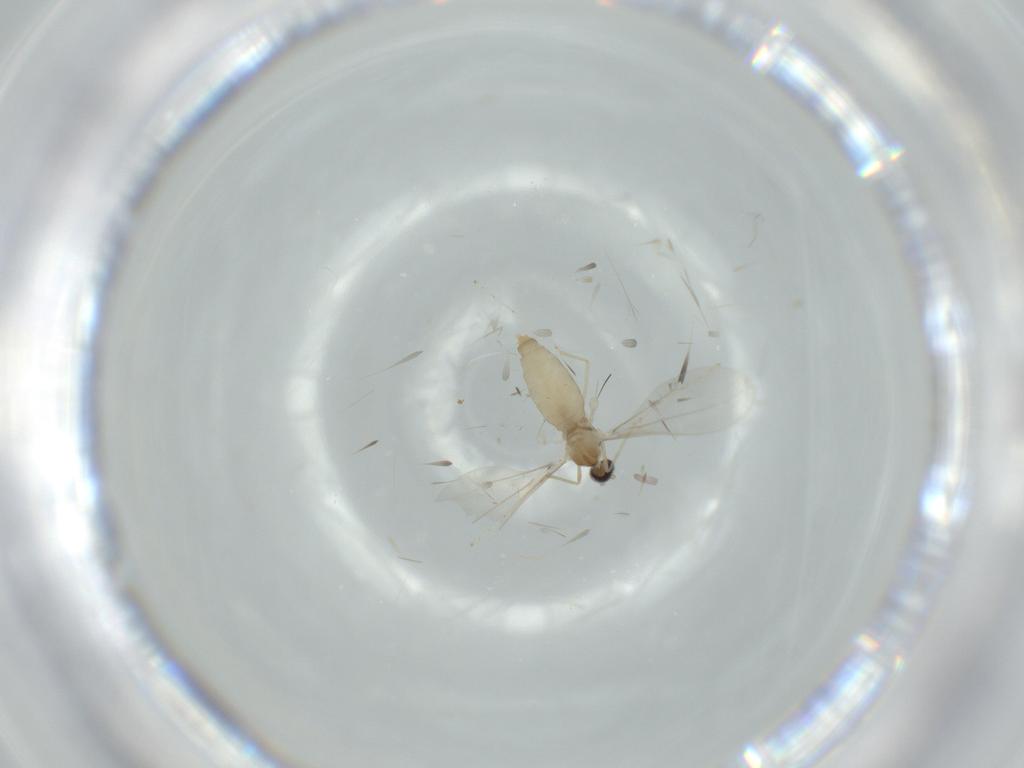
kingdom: Animalia
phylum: Arthropoda
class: Insecta
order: Diptera
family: Cecidomyiidae
